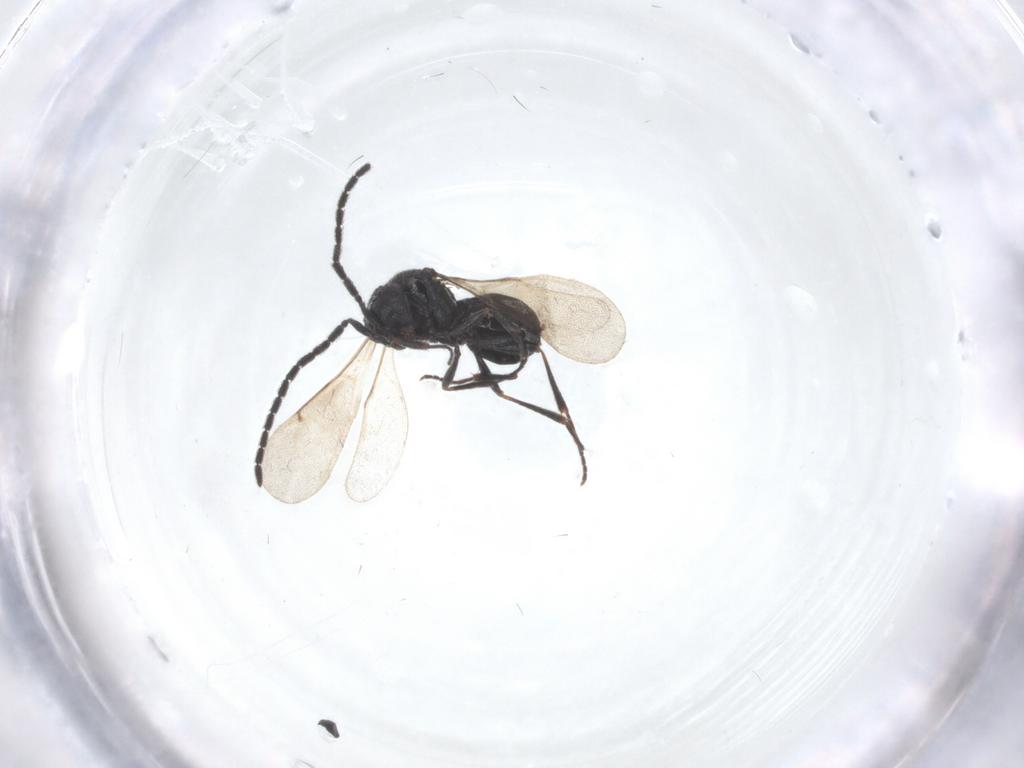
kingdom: Animalia
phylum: Arthropoda
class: Insecta
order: Hymenoptera
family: Scelionidae
